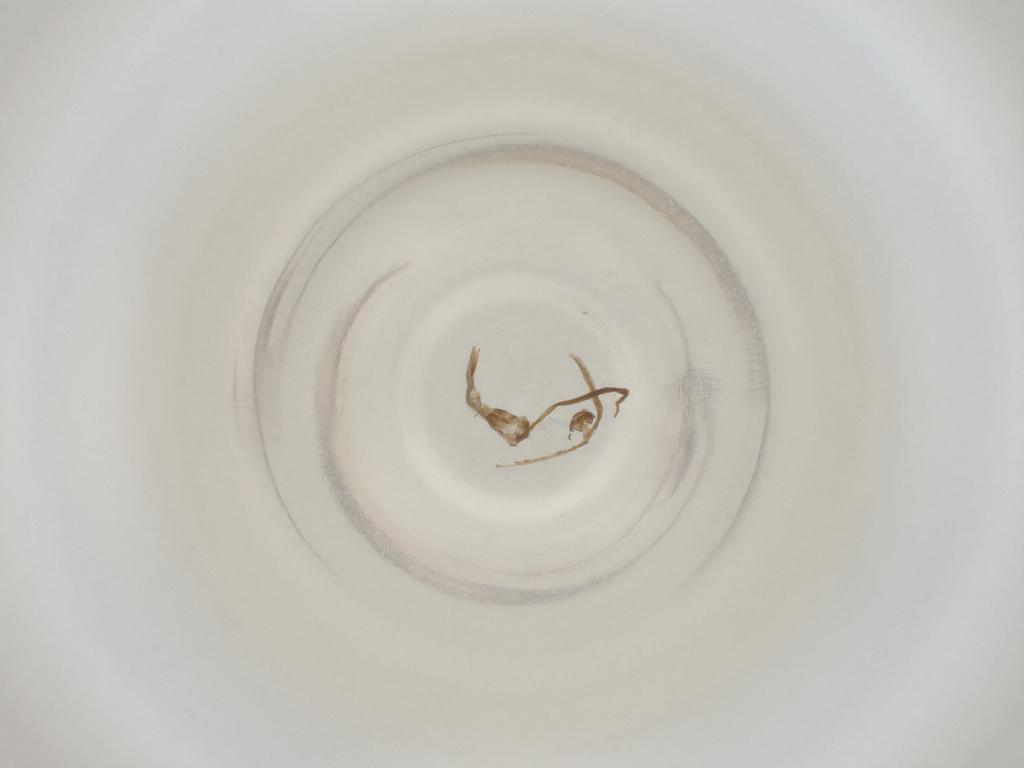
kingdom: Animalia
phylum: Arthropoda
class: Insecta
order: Diptera
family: Cecidomyiidae
